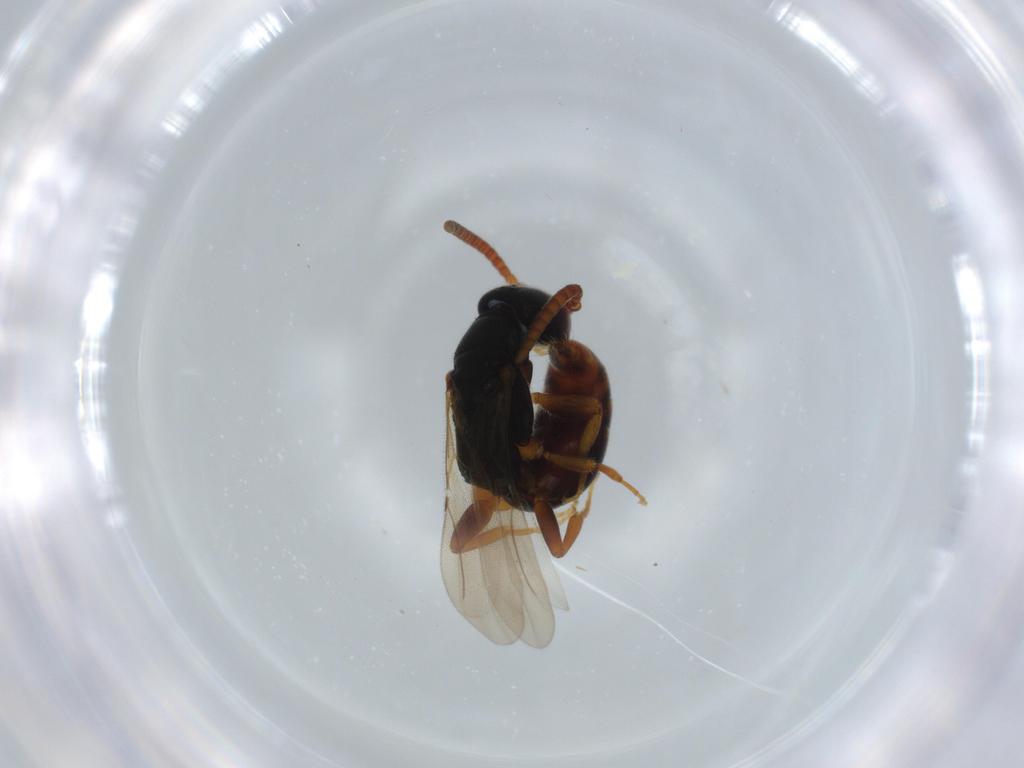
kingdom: Animalia
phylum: Arthropoda
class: Insecta
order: Hymenoptera
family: Bethylidae
